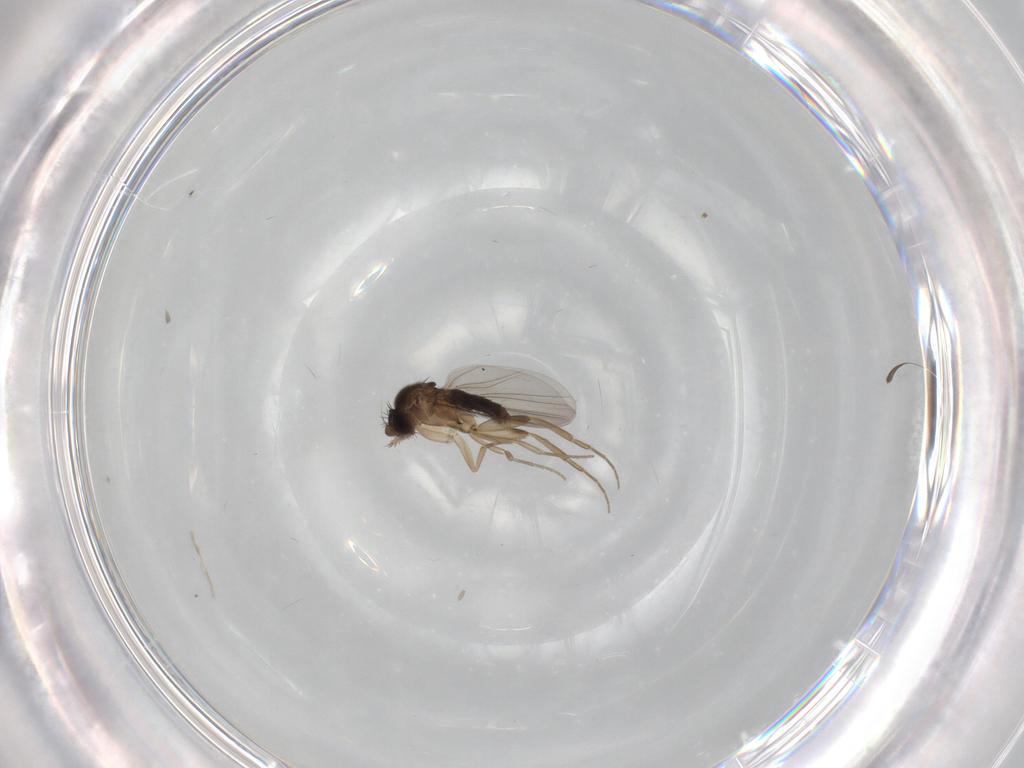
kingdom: Animalia
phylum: Arthropoda
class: Insecta
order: Diptera
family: Phoridae
